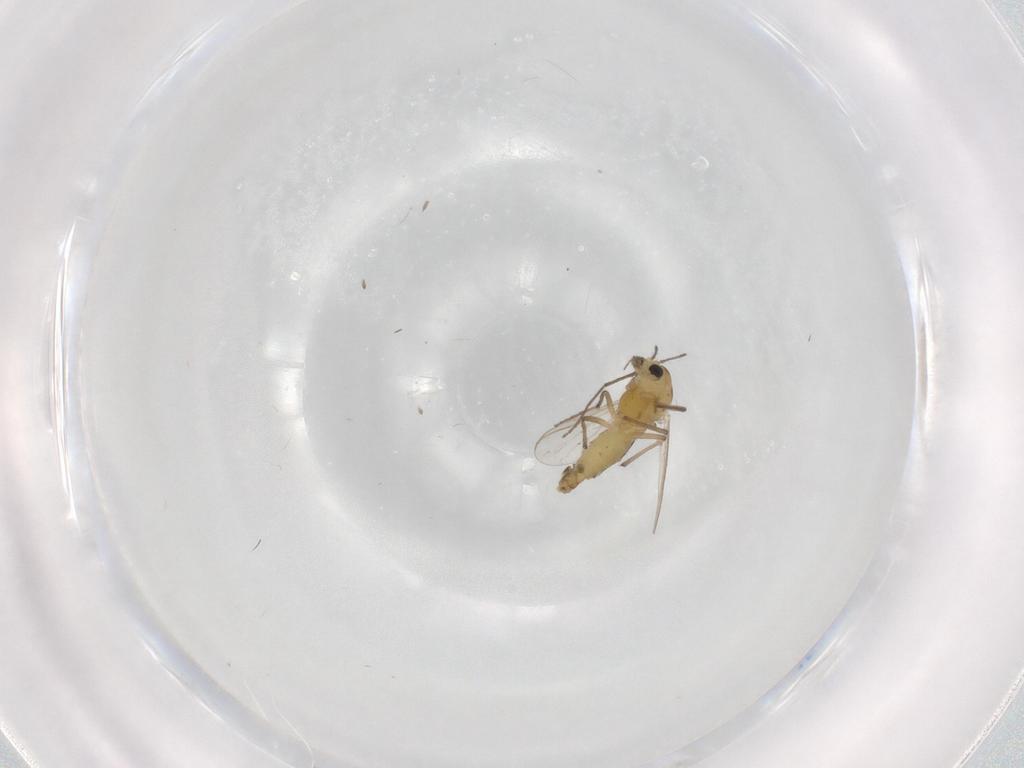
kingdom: Animalia
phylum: Arthropoda
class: Insecta
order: Diptera
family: Chironomidae
